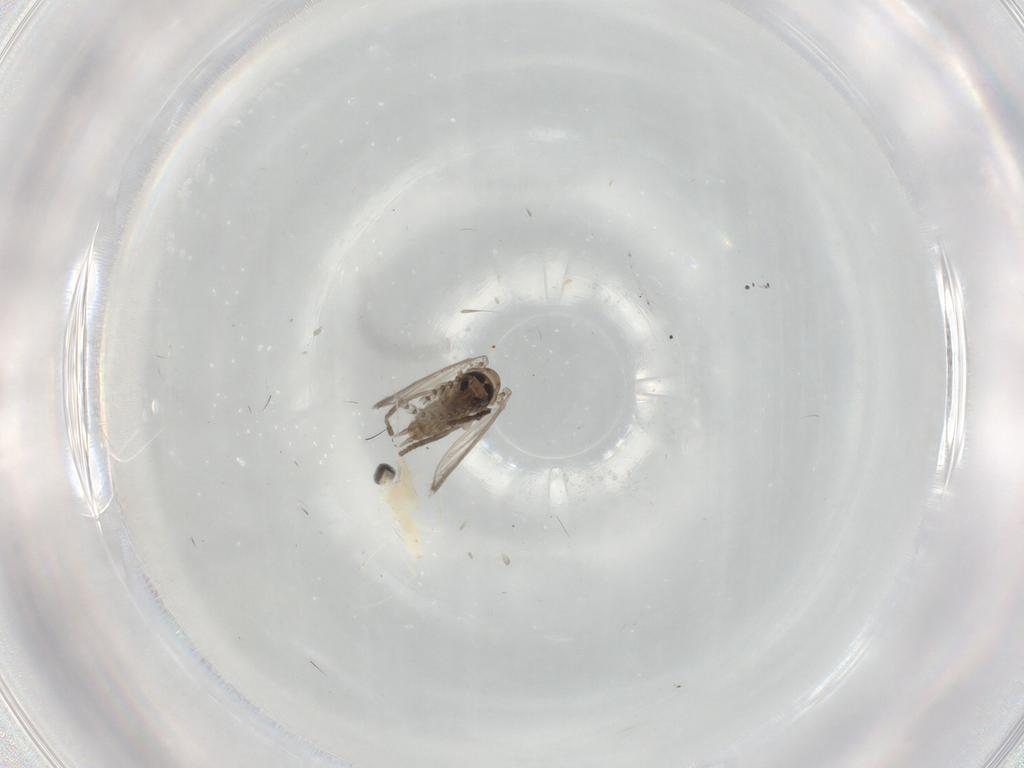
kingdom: Animalia
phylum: Arthropoda
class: Insecta
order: Diptera
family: Cecidomyiidae
